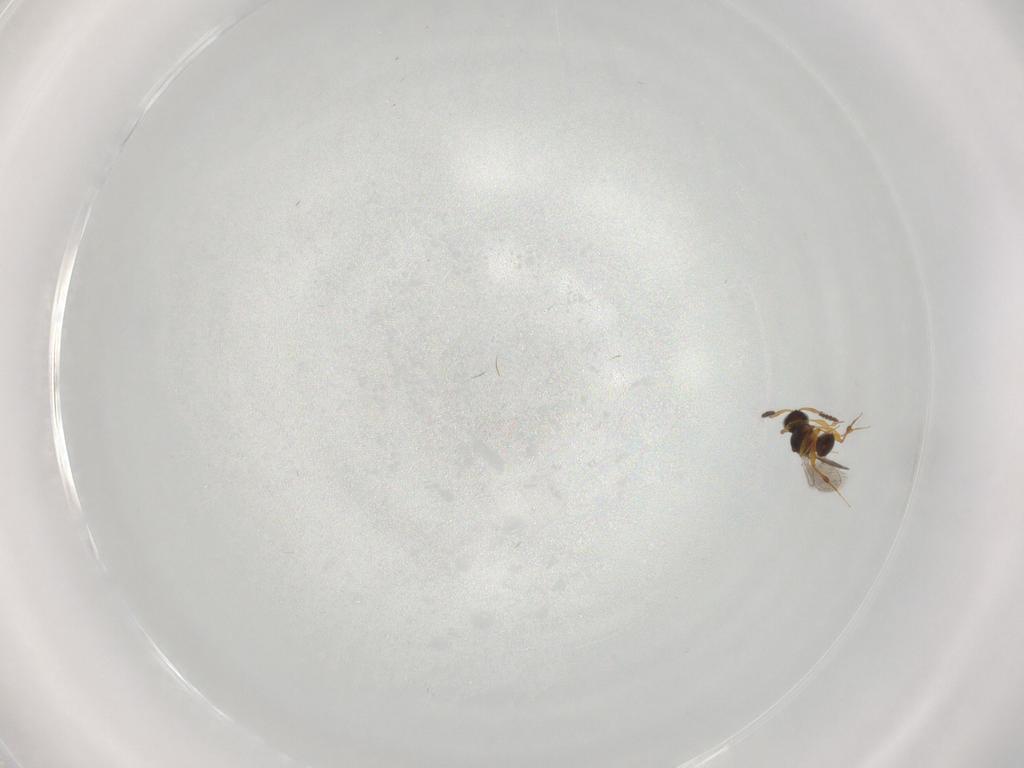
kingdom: Animalia
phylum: Arthropoda
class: Insecta
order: Hymenoptera
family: Platygastridae
